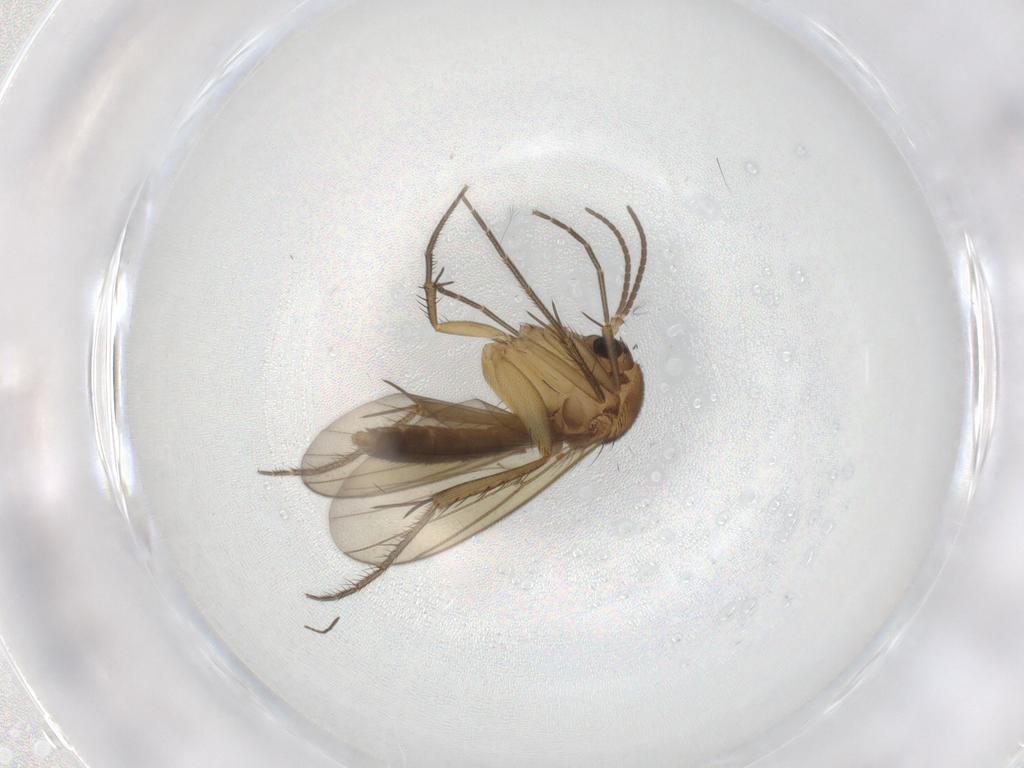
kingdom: Animalia
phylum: Arthropoda
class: Insecta
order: Diptera
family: Mycetophilidae
